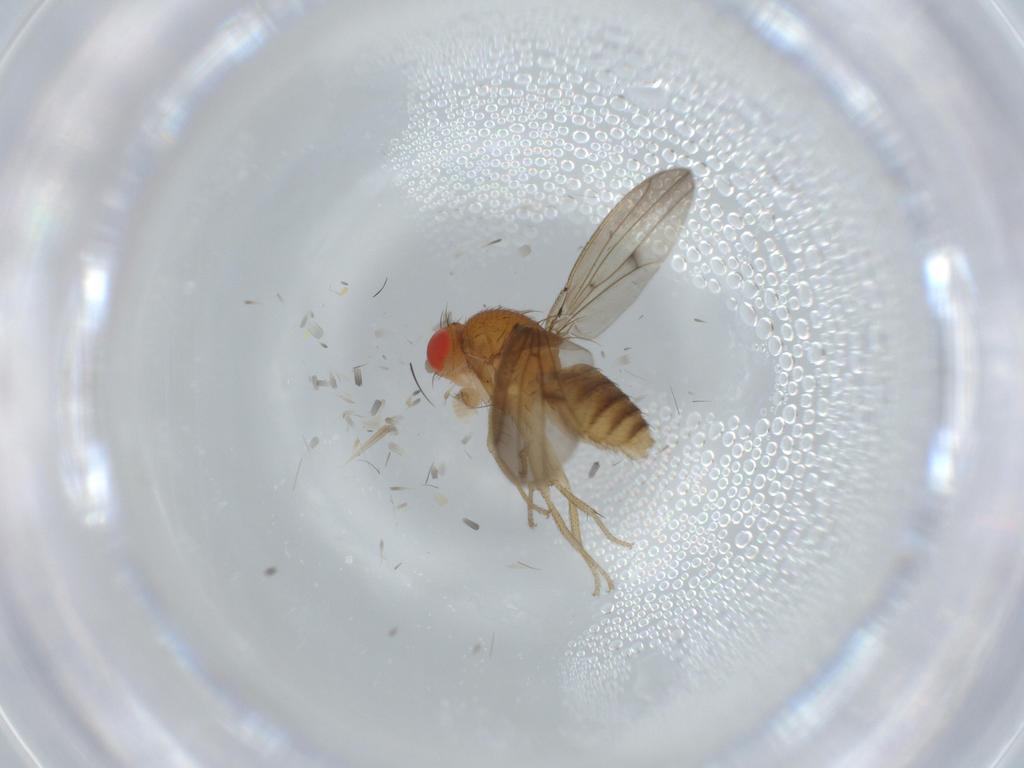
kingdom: Animalia
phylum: Arthropoda
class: Insecta
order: Diptera
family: Drosophilidae
